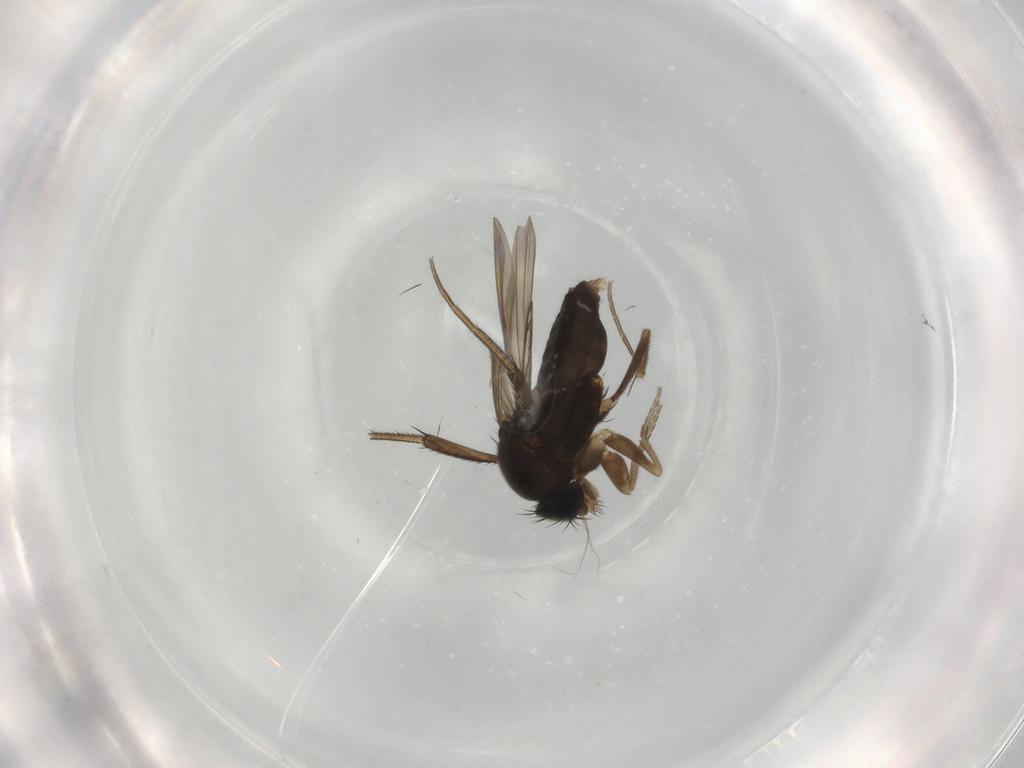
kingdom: Animalia
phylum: Arthropoda
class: Insecta
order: Diptera
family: Phoridae
